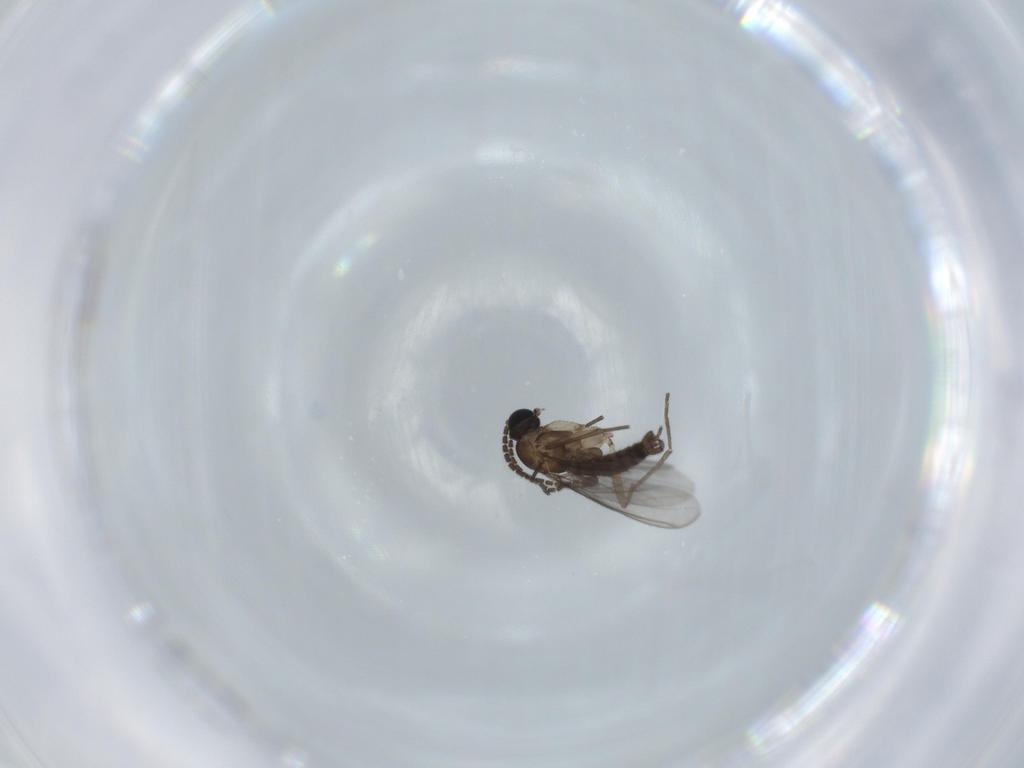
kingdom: Animalia
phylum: Arthropoda
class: Insecta
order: Diptera
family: Sciaridae
